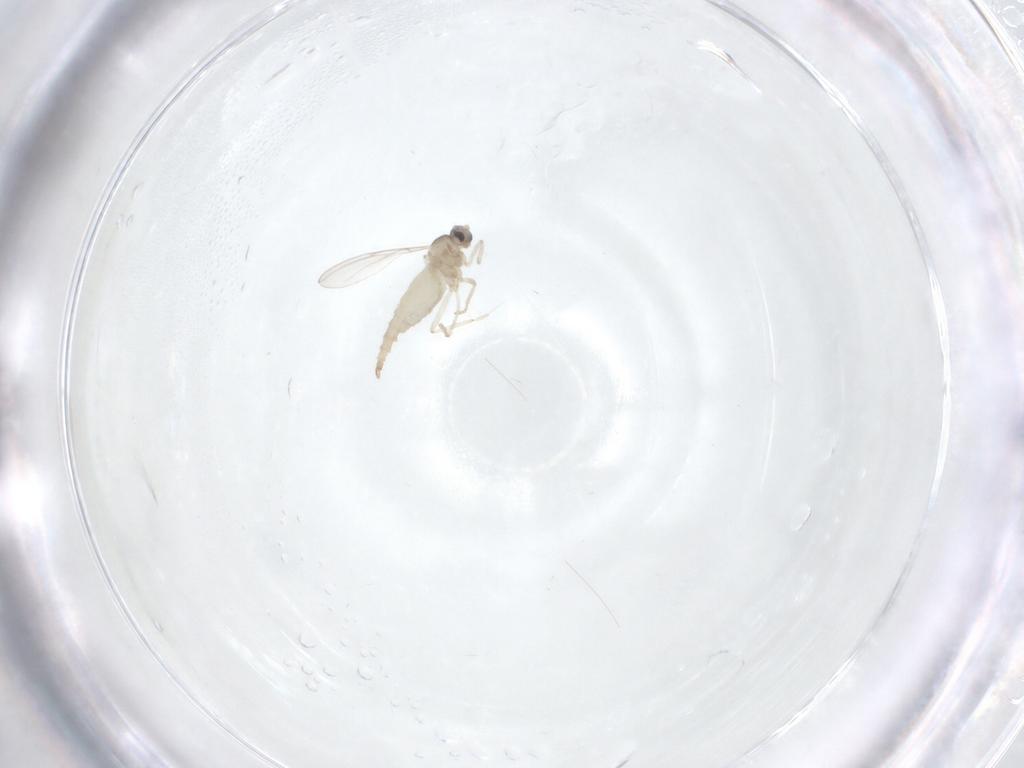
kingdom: Animalia
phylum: Arthropoda
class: Insecta
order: Diptera
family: Cecidomyiidae
